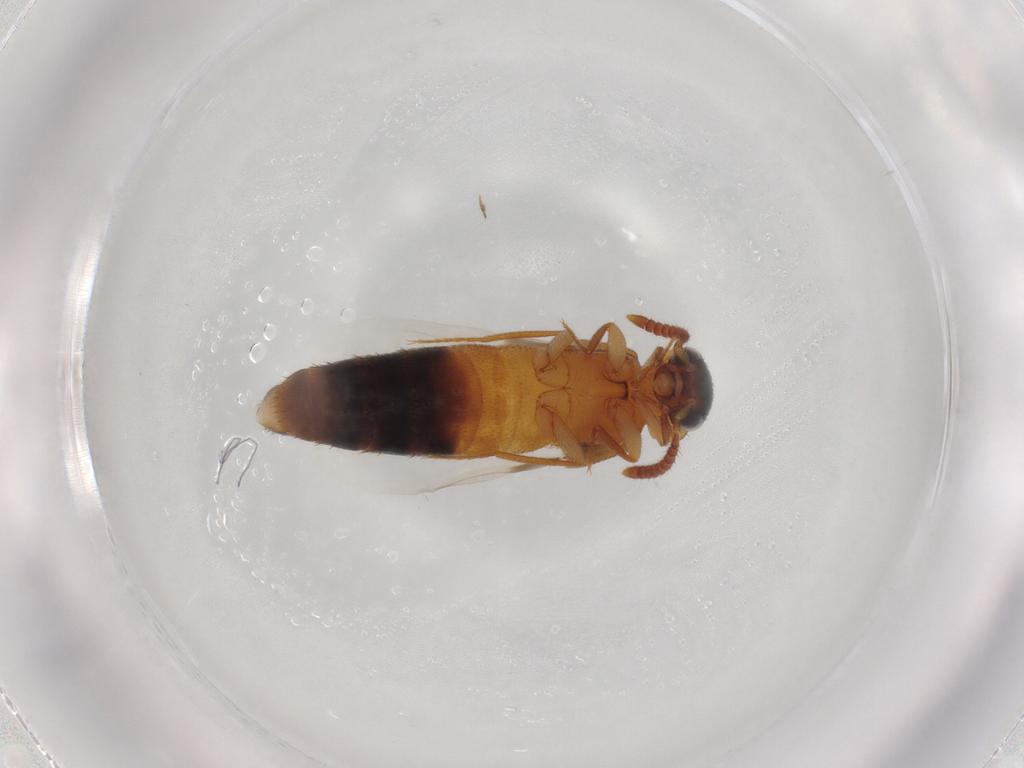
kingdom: Animalia
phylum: Arthropoda
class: Insecta
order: Coleoptera
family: Staphylinidae
